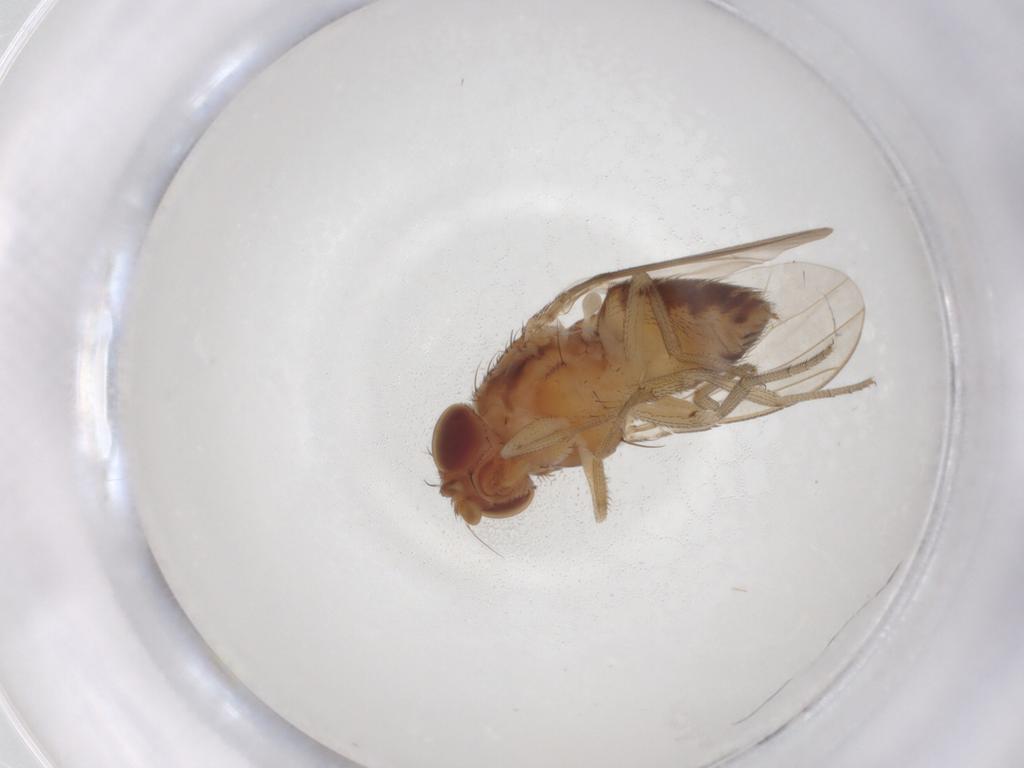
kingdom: Animalia
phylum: Arthropoda
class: Insecta
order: Diptera
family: Drosophilidae
